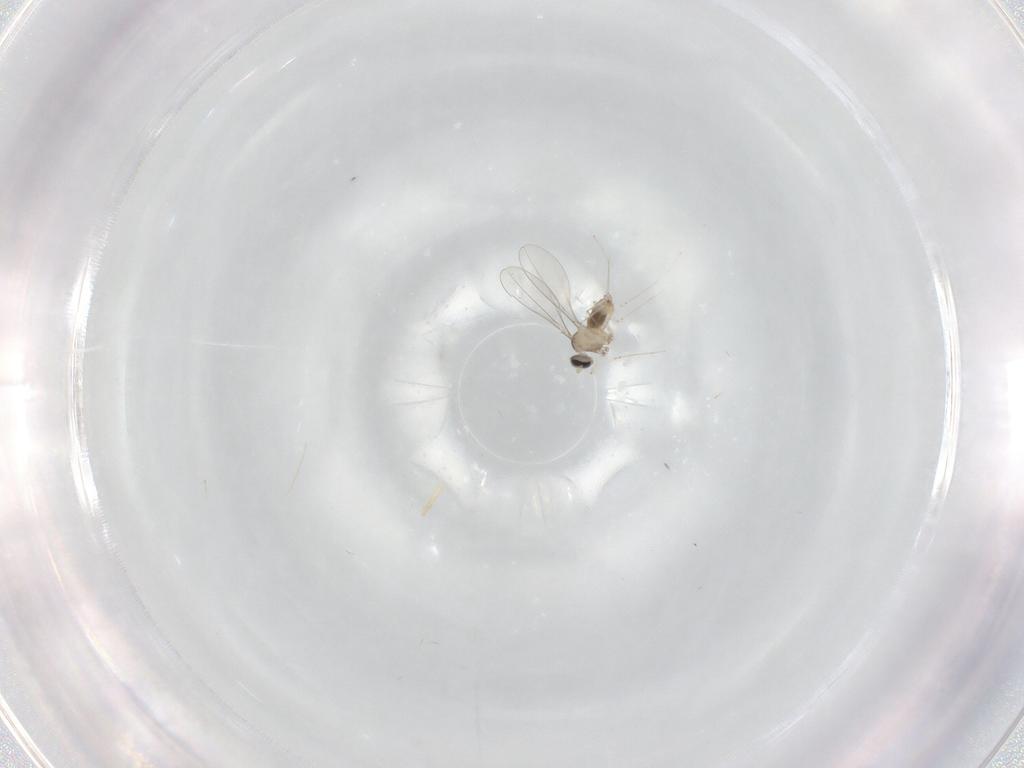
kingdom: Animalia
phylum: Arthropoda
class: Insecta
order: Diptera
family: Cecidomyiidae
